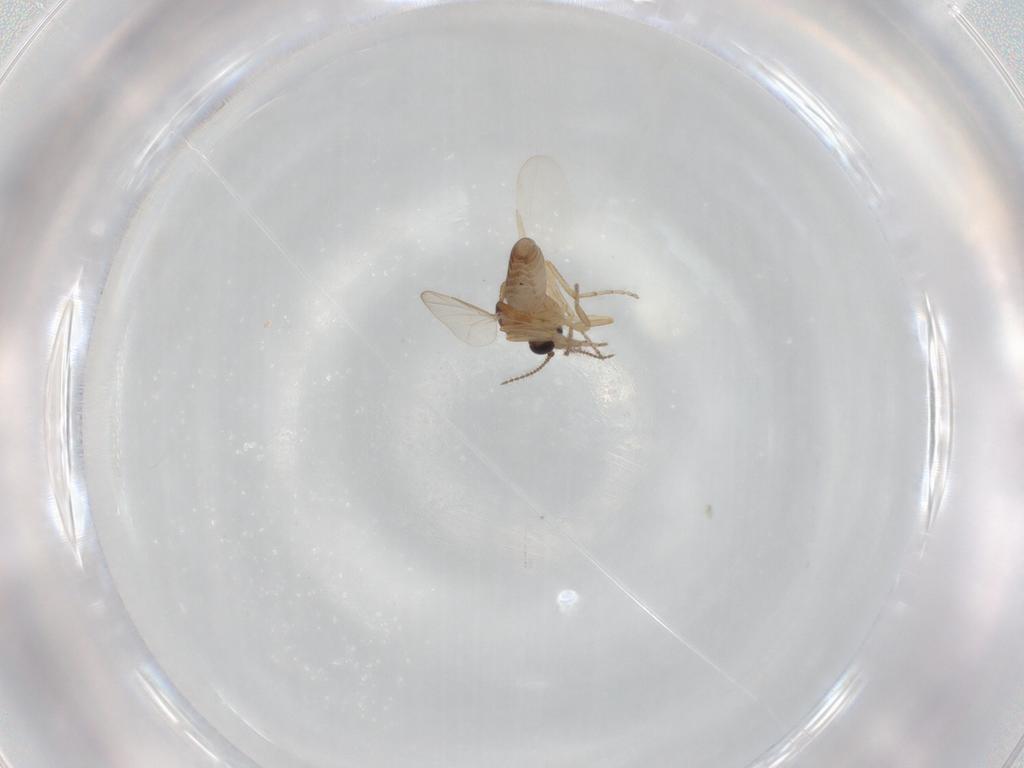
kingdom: Animalia
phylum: Arthropoda
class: Insecta
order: Diptera
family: Ceratopogonidae
